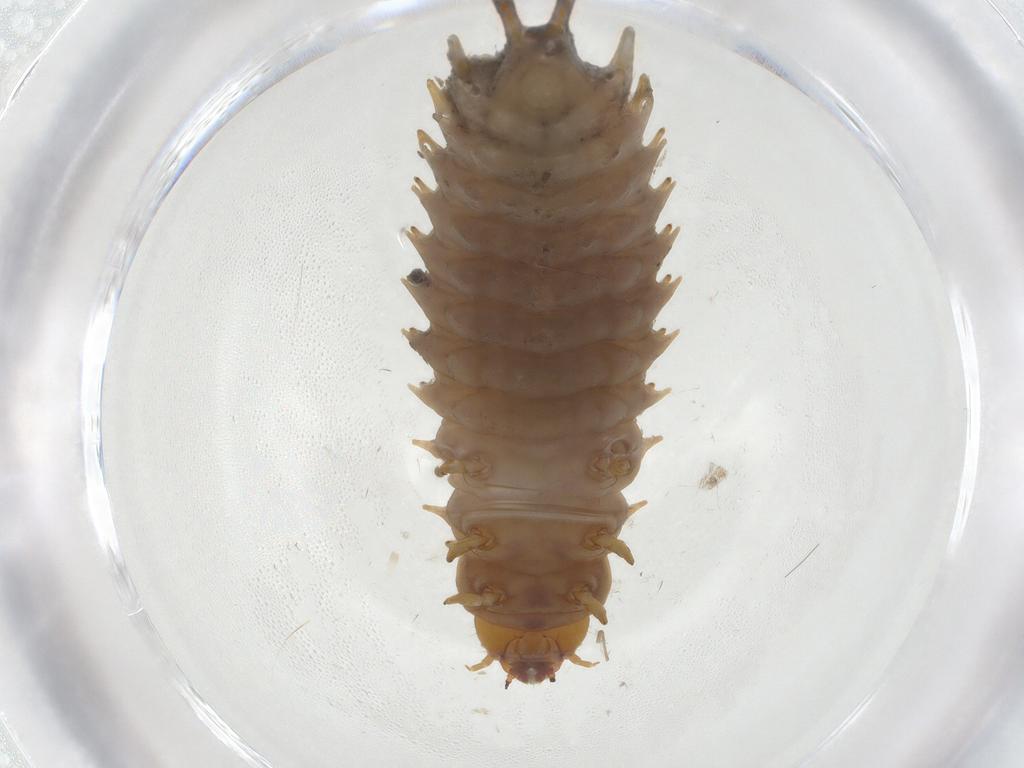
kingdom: Animalia
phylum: Arthropoda
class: Insecta
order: Coleoptera
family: Nitidulidae
